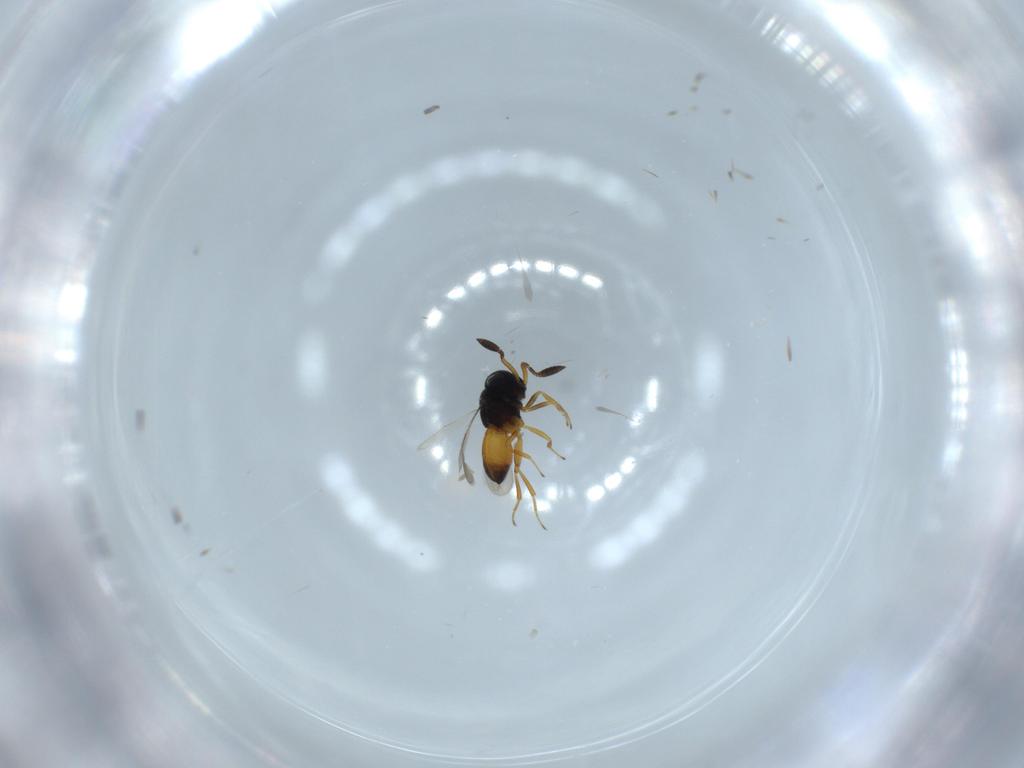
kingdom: Animalia
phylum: Arthropoda
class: Insecta
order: Hymenoptera
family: Scelionidae
